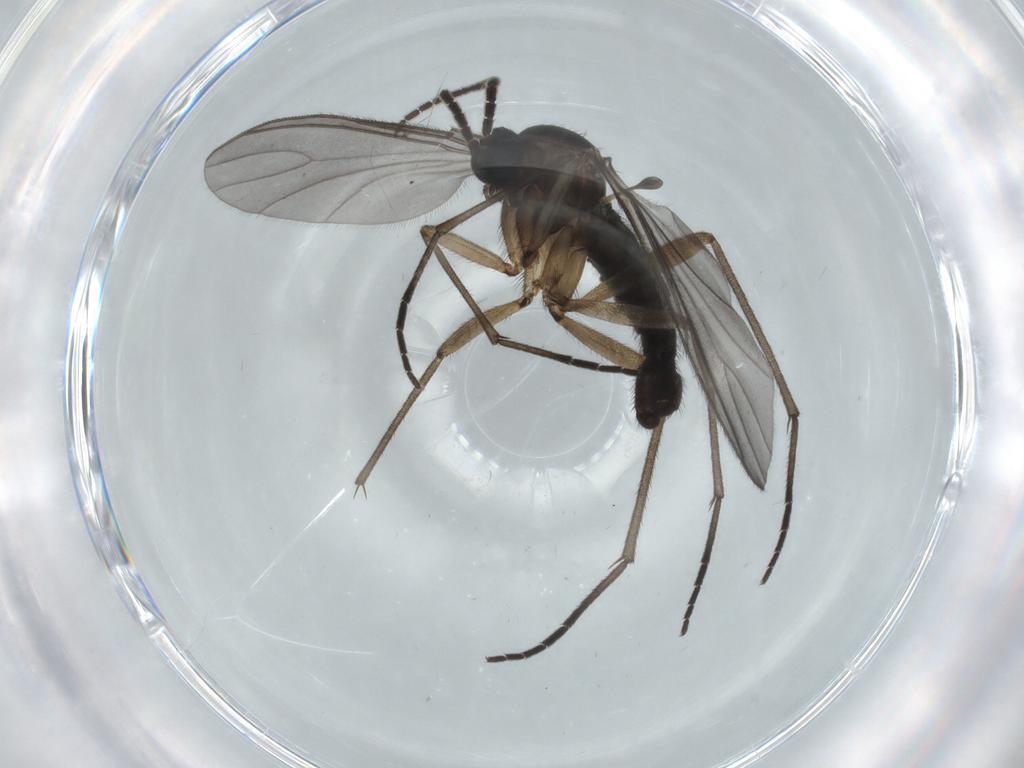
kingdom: Animalia
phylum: Arthropoda
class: Insecta
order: Diptera
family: Sciaridae
